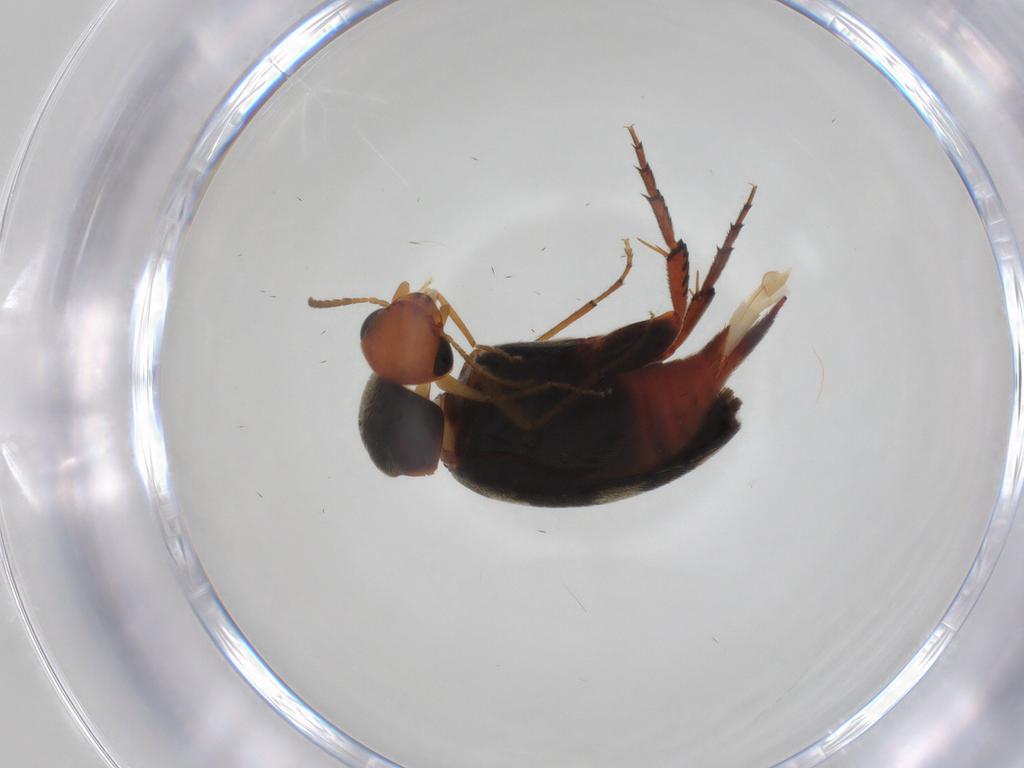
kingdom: Animalia
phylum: Arthropoda
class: Insecta
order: Coleoptera
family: Mordellidae
